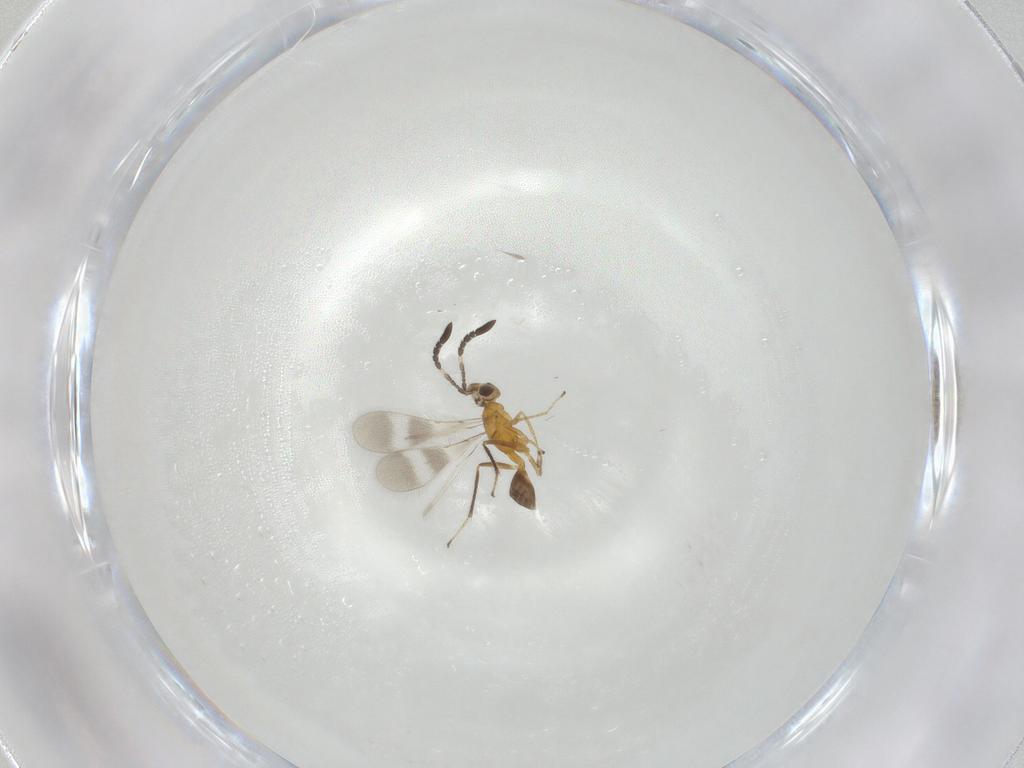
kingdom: Animalia
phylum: Arthropoda
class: Insecta
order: Hymenoptera
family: Mymaridae
